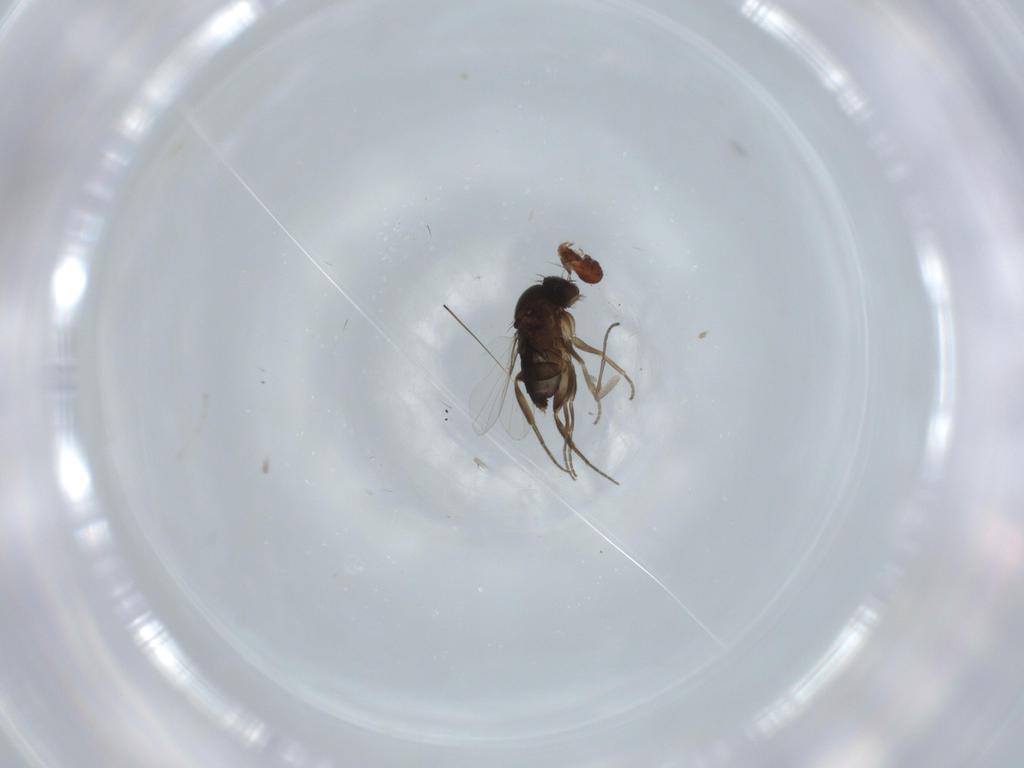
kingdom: Animalia
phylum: Arthropoda
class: Insecta
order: Diptera
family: Phoridae
